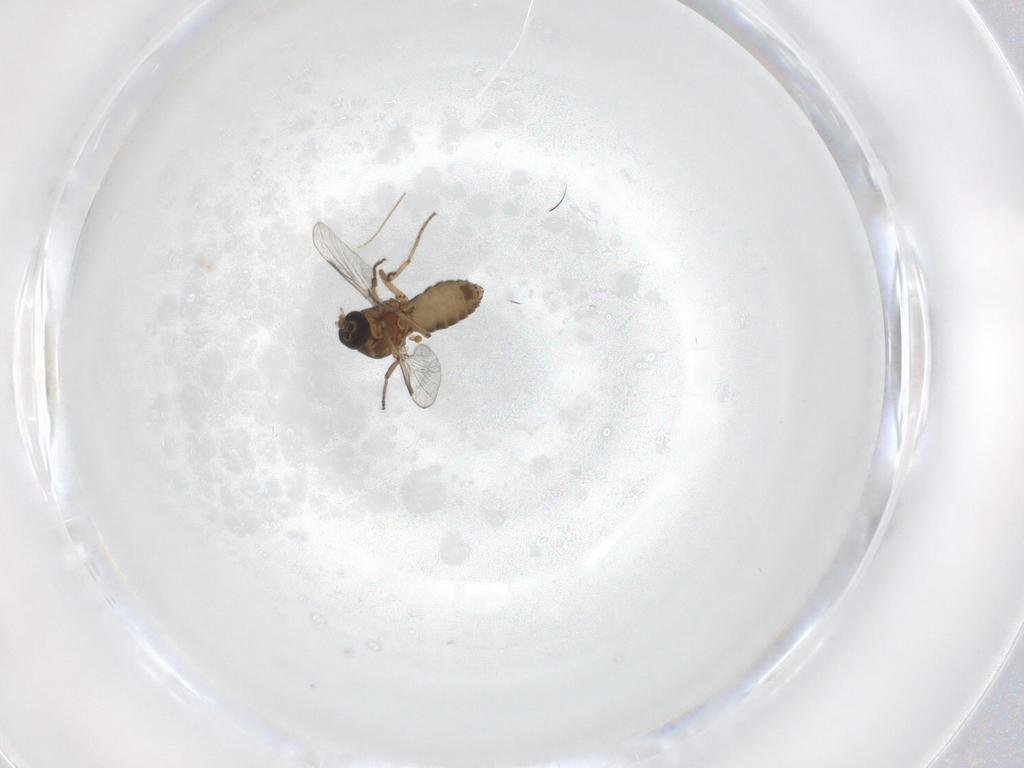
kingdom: Animalia
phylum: Arthropoda
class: Insecta
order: Diptera
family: Ceratopogonidae
